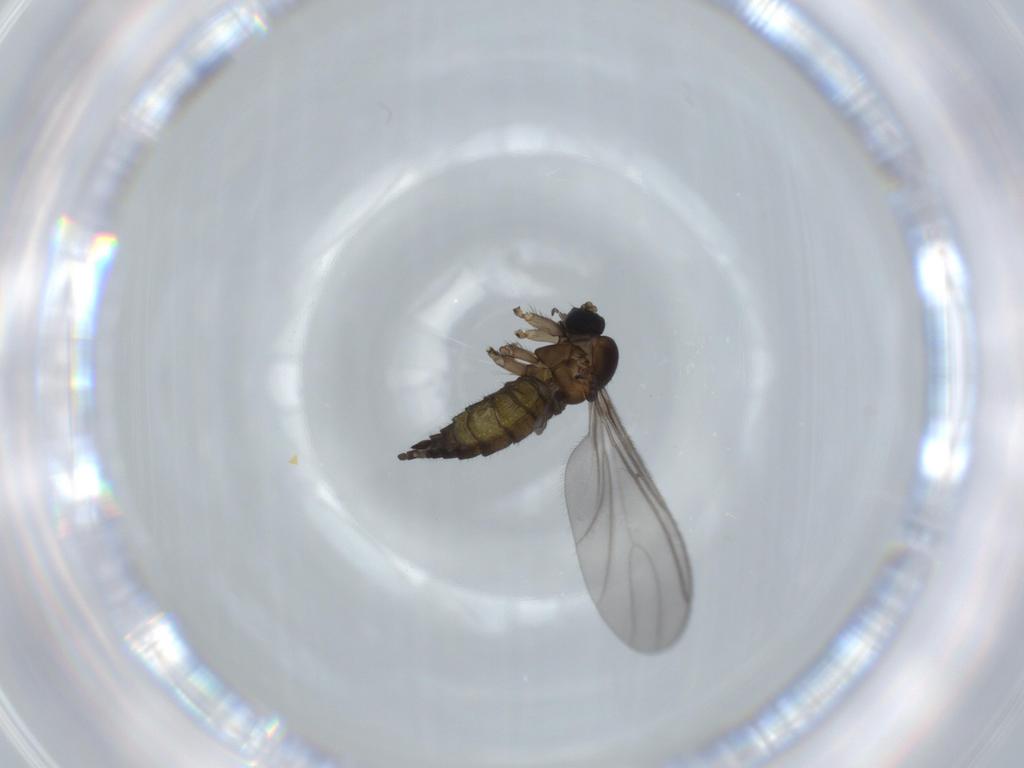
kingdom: Animalia
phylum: Arthropoda
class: Insecta
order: Diptera
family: Sciaridae
